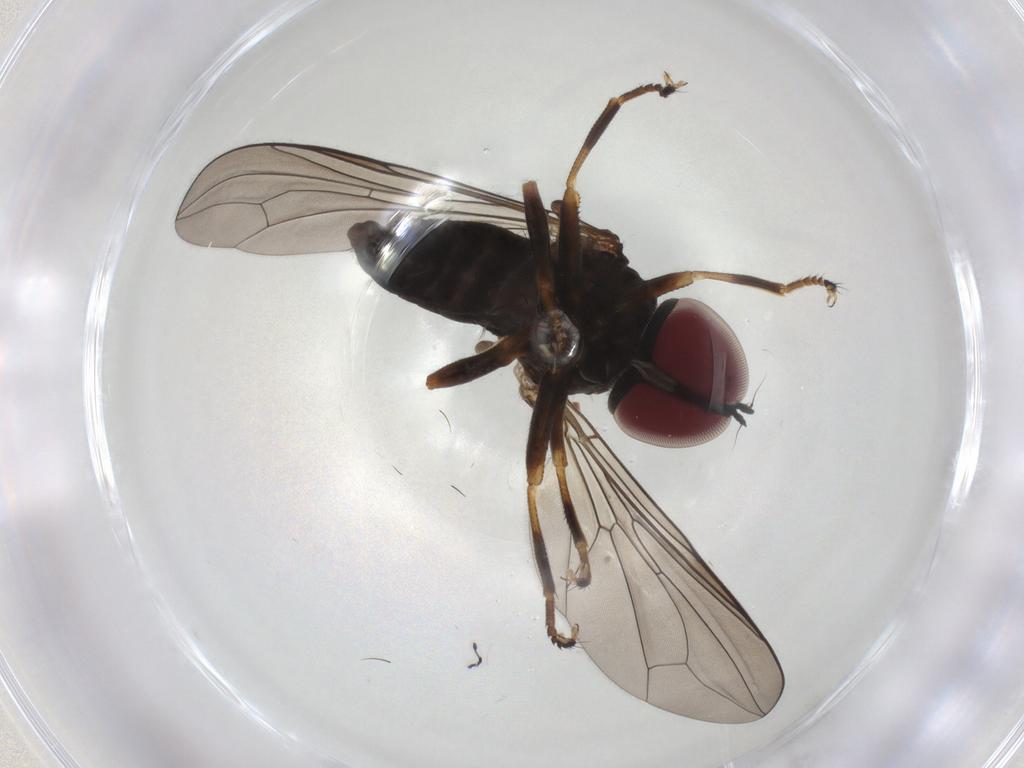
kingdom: Animalia
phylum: Arthropoda
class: Insecta
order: Diptera
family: Pipunculidae
